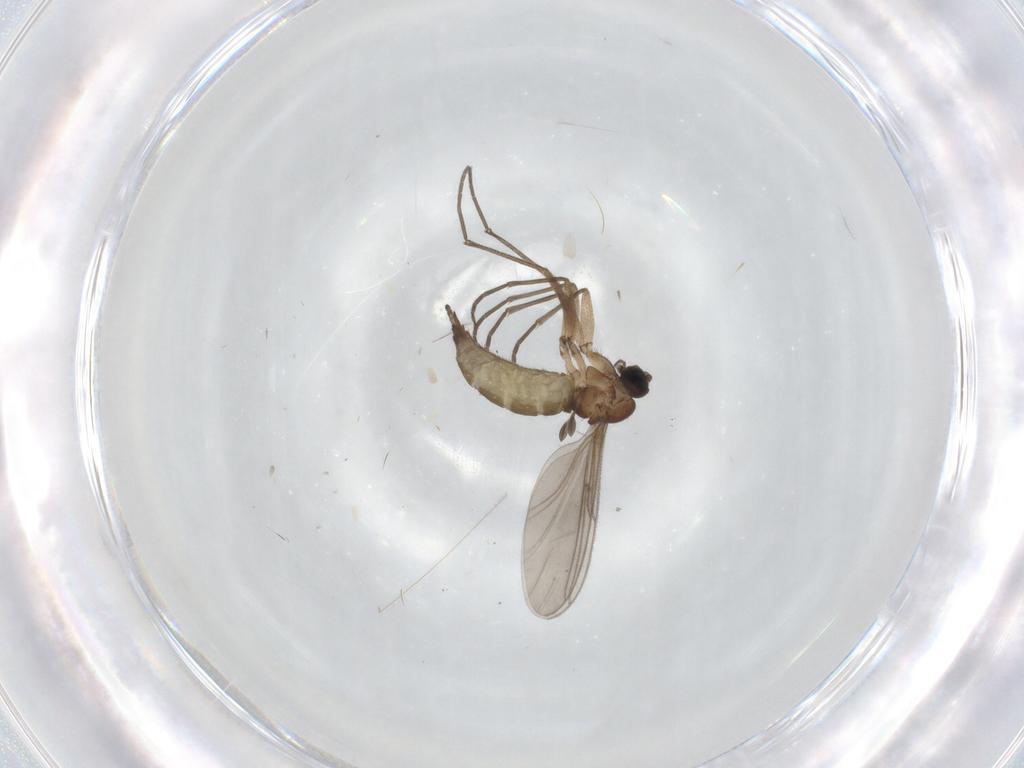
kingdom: Animalia
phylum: Arthropoda
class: Insecta
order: Diptera
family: Sciaridae
